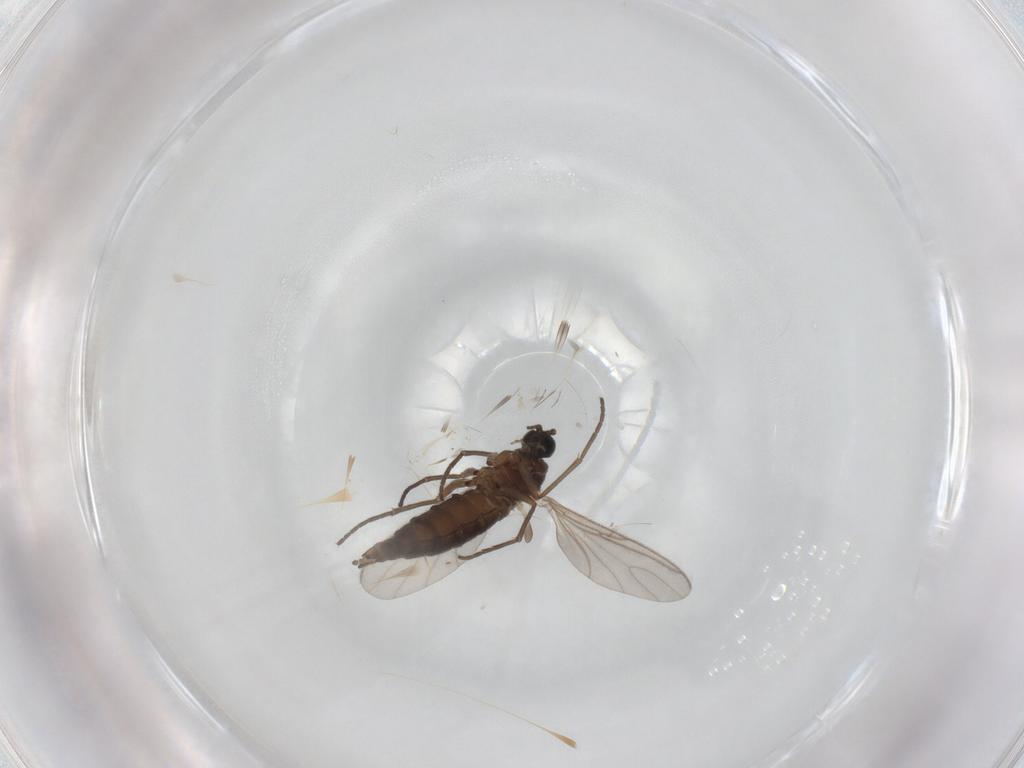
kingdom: Animalia
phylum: Arthropoda
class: Insecta
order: Diptera
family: Sciaridae
